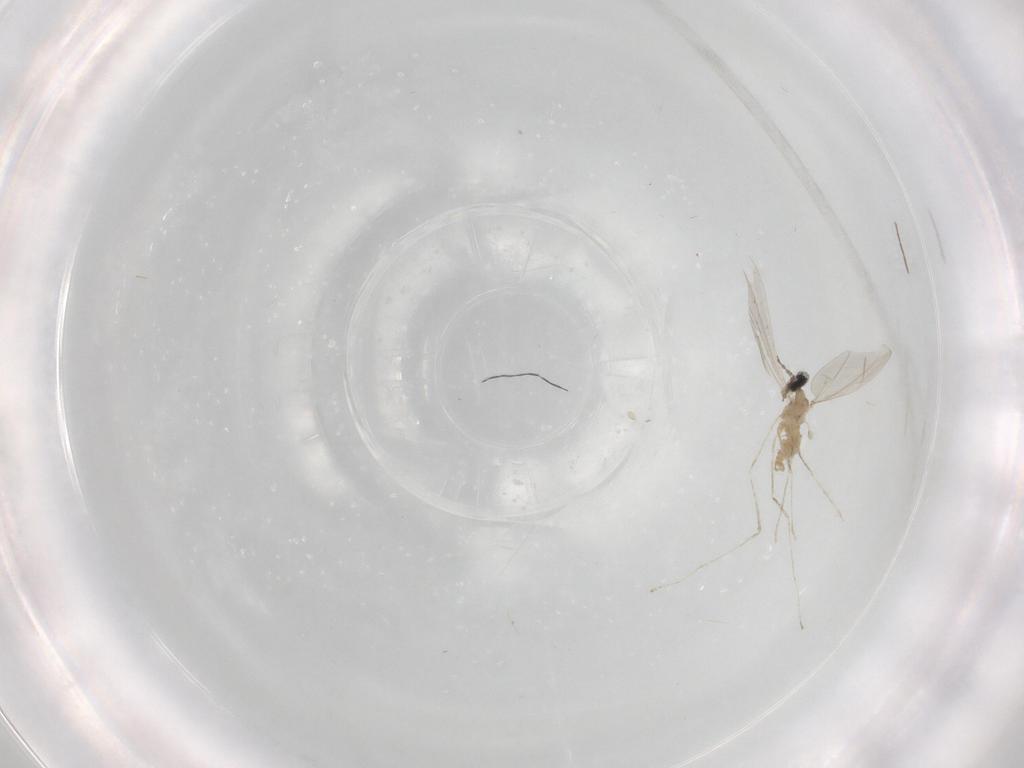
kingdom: Animalia
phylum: Arthropoda
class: Insecta
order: Diptera
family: Cecidomyiidae
